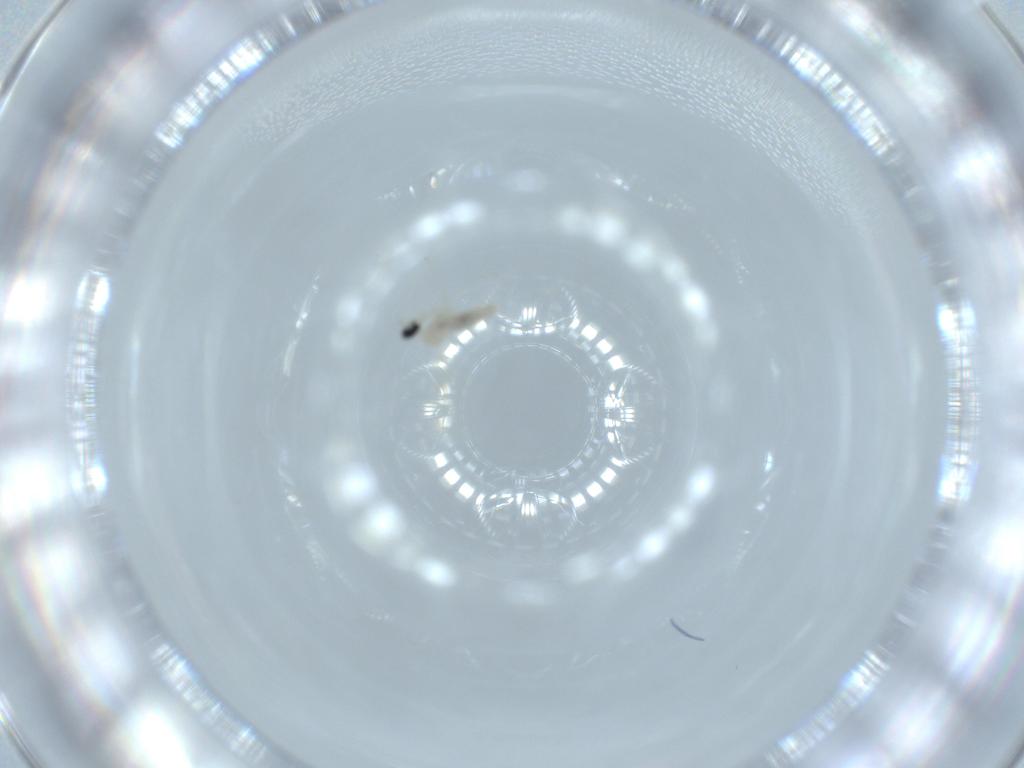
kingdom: Animalia
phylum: Arthropoda
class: Insecta
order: Diptera
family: Cecidomyiidae
